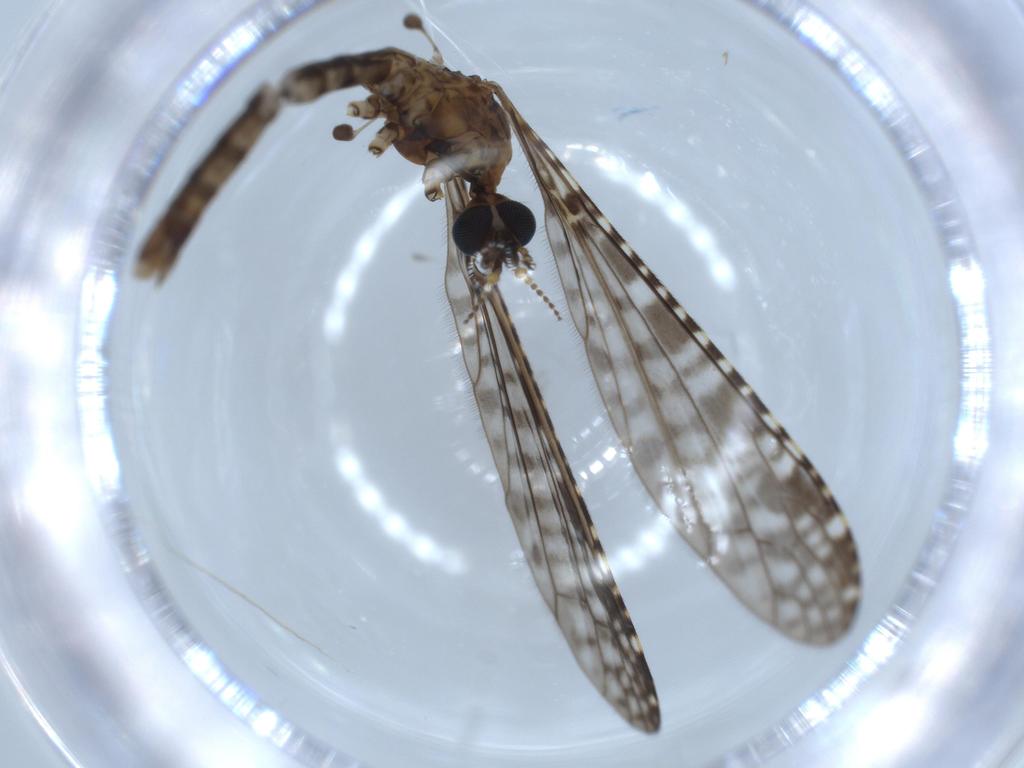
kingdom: Animalia
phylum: Arthropoda
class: Insecta
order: Diptera
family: Limoniidae
